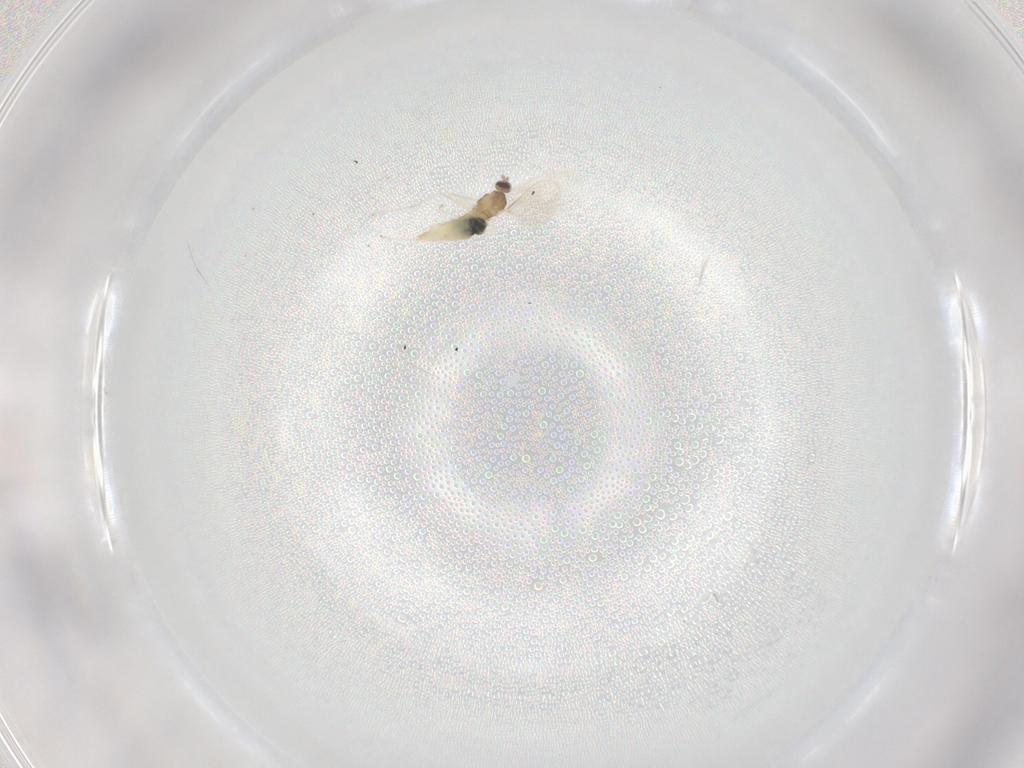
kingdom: Animalia
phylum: Arthropoda
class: Insecta
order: Diptera
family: Cecidomyiidae
